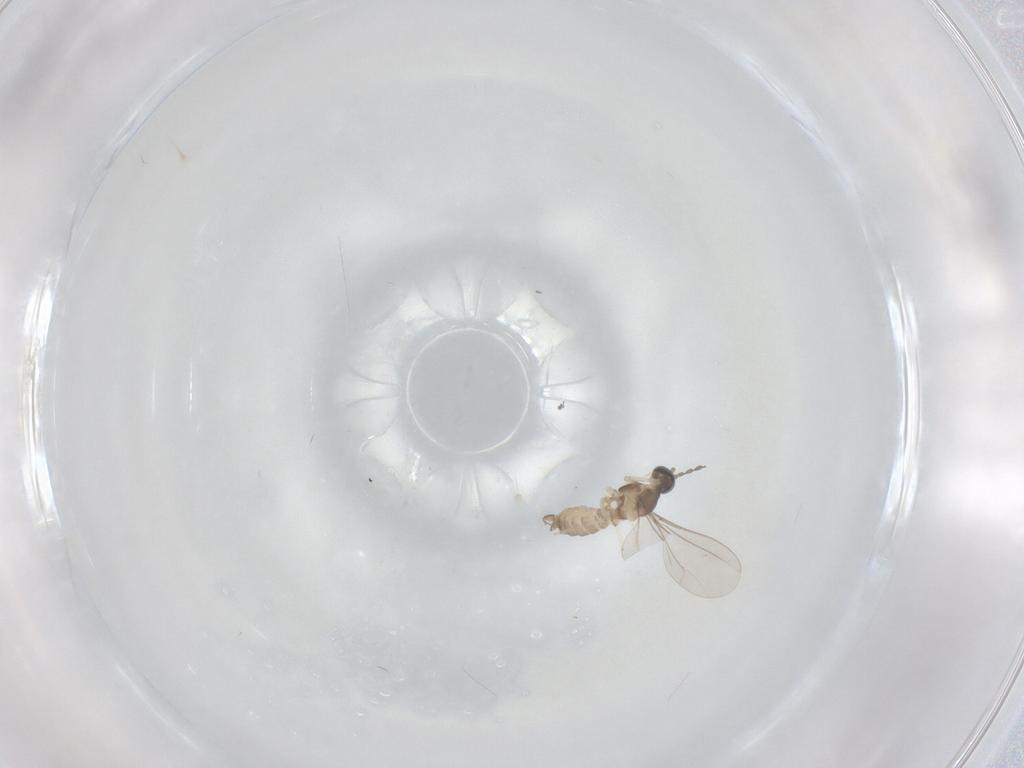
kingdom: Animalia
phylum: Arthropoda
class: Insecta
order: Diptera
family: Cecidomyiidae
